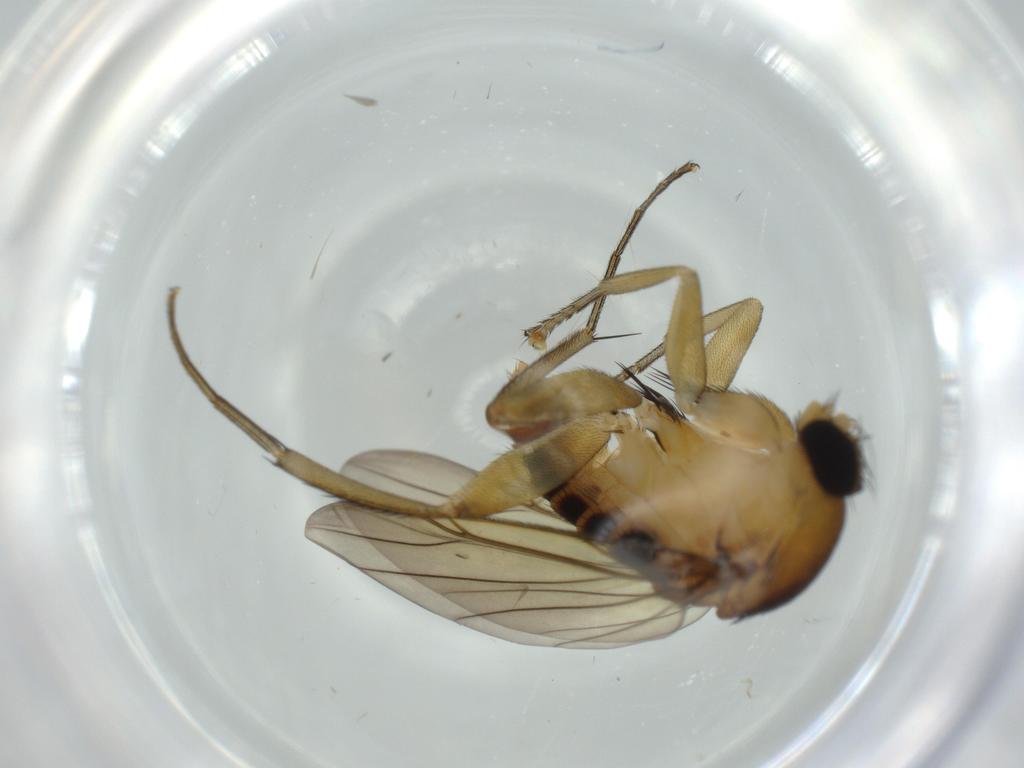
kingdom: Animalia
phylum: Arthropoda
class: Insecta
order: Diptera
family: Phoridae
